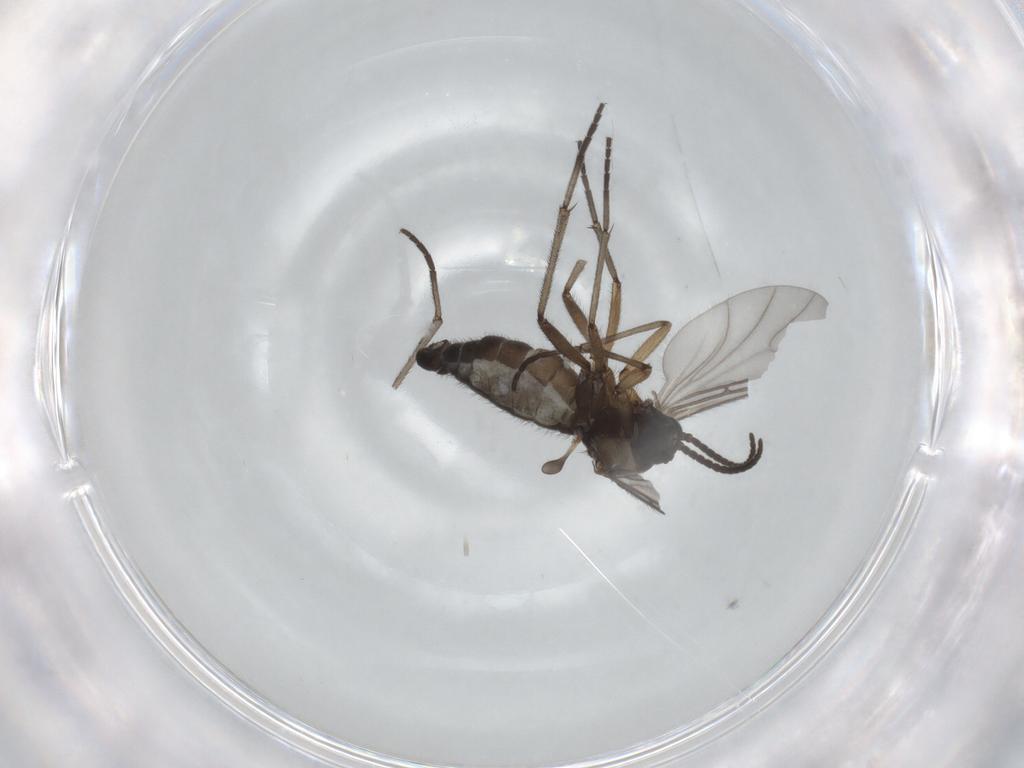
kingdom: Animalia
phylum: Arthropoda
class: Insecta
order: Diptera
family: Sciaridae
